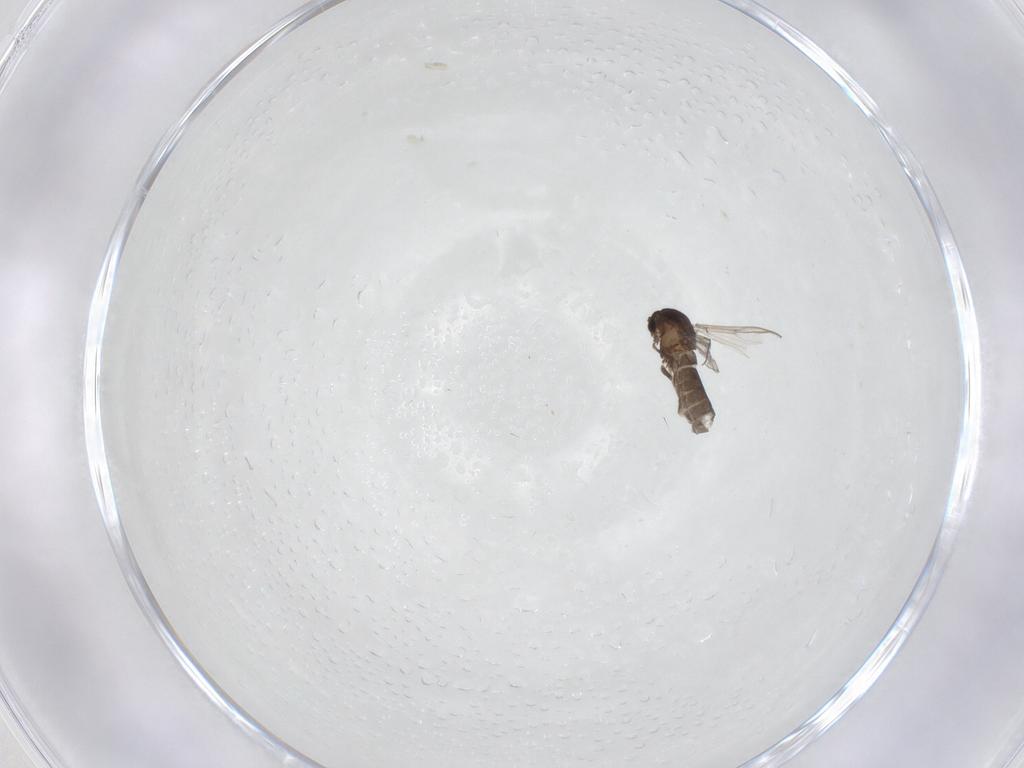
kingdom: Animalia
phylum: Arthropoda
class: Insecta
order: Diptera
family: Chironomidae
